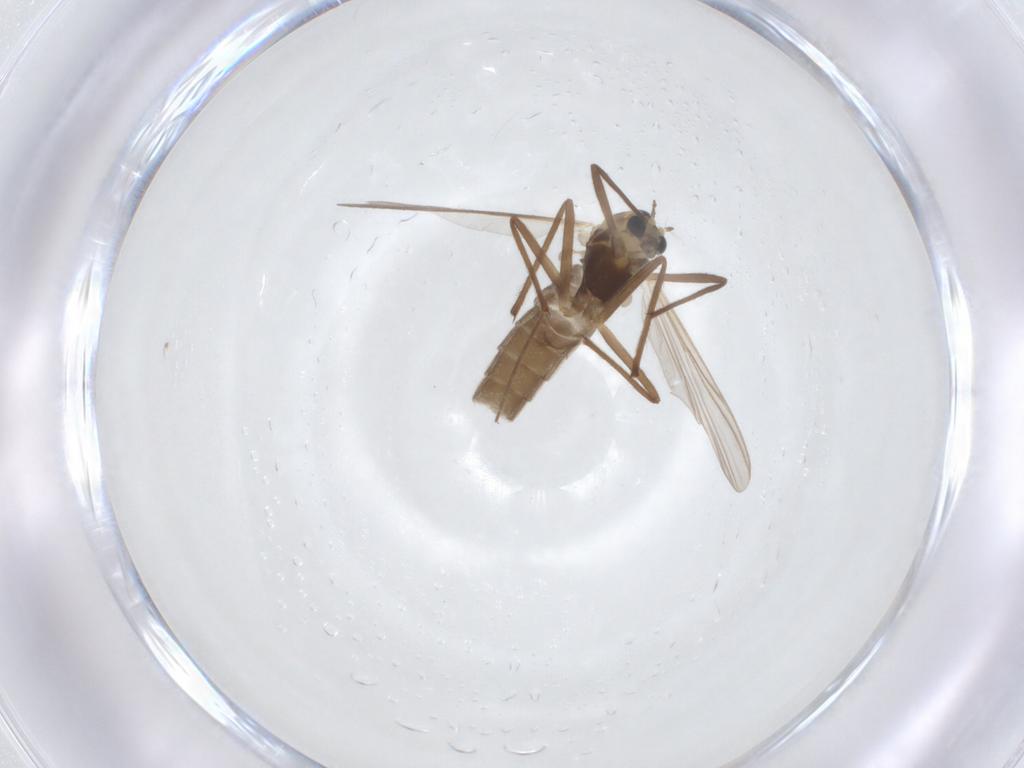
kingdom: Animalia
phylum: Arthropoda
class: Insecta
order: Diptera
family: Chironomidae
